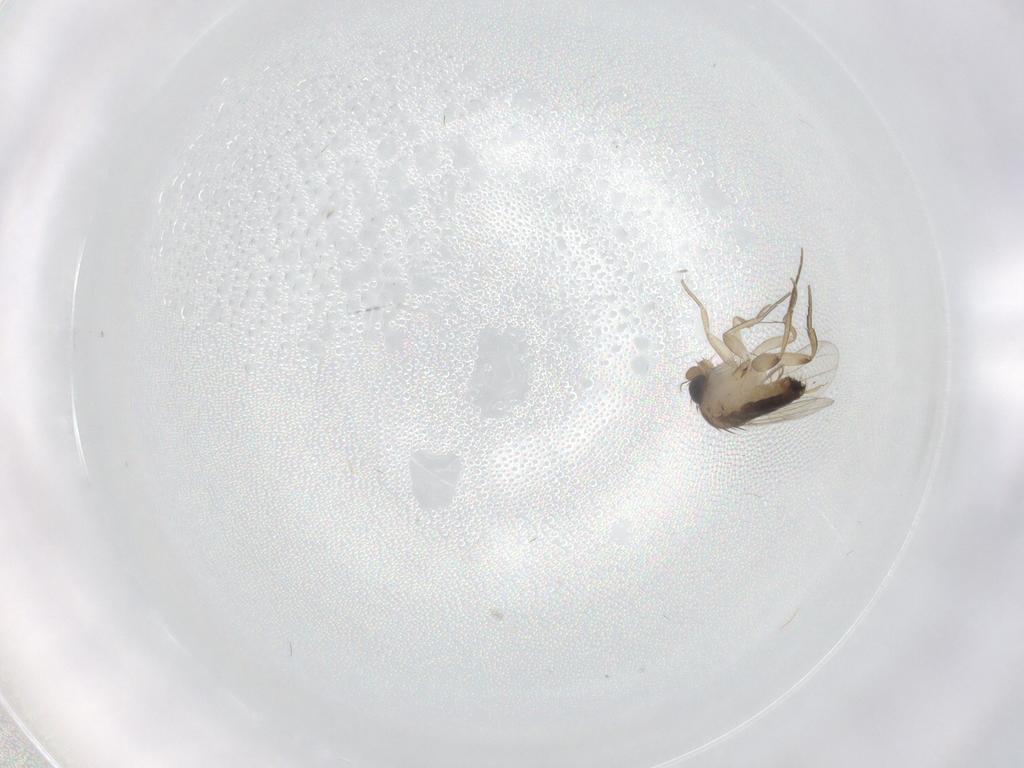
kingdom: Animalia
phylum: Arthropoda
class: Insecta
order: Diptera
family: Phoridae
